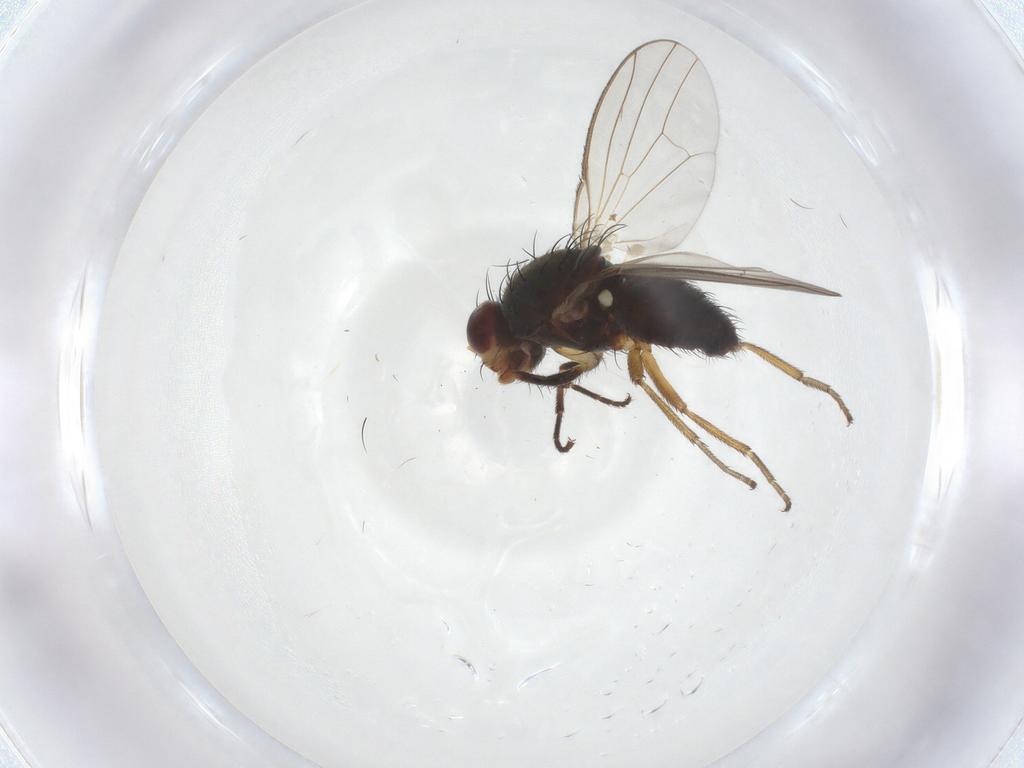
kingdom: Animalia
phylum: Arthropoda
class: Insecta
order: Diptera
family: Heleomyzidae
